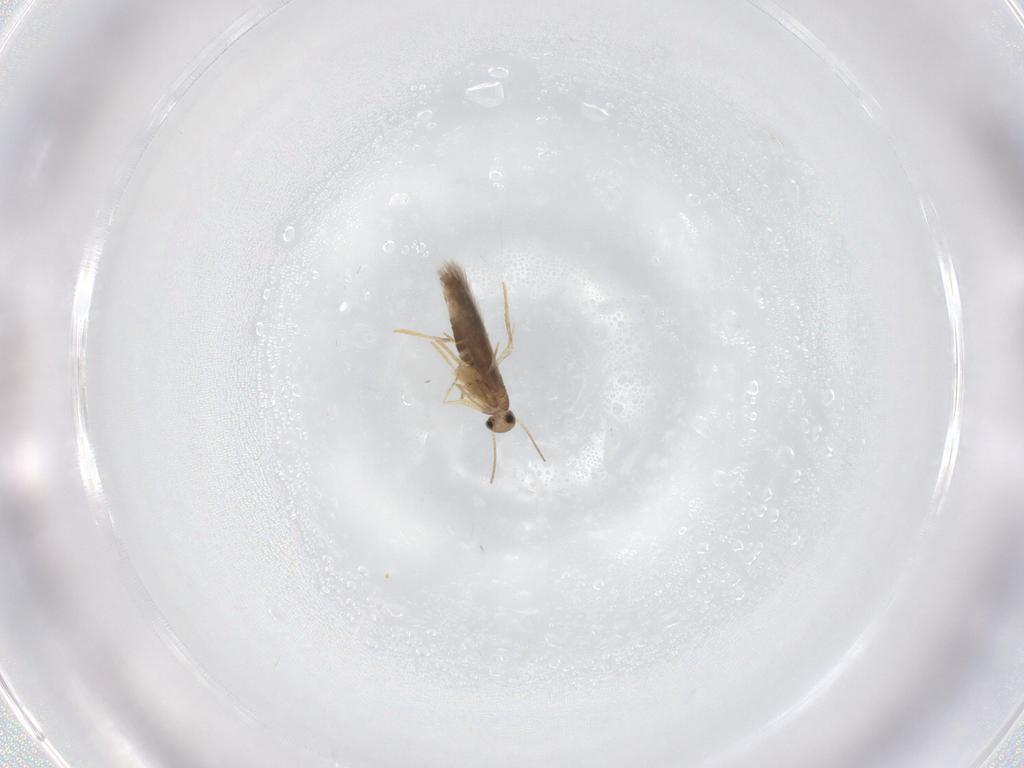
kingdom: Animalia
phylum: Arthropoda
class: Insecta
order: Lepidoptera
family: Heliozelidae
